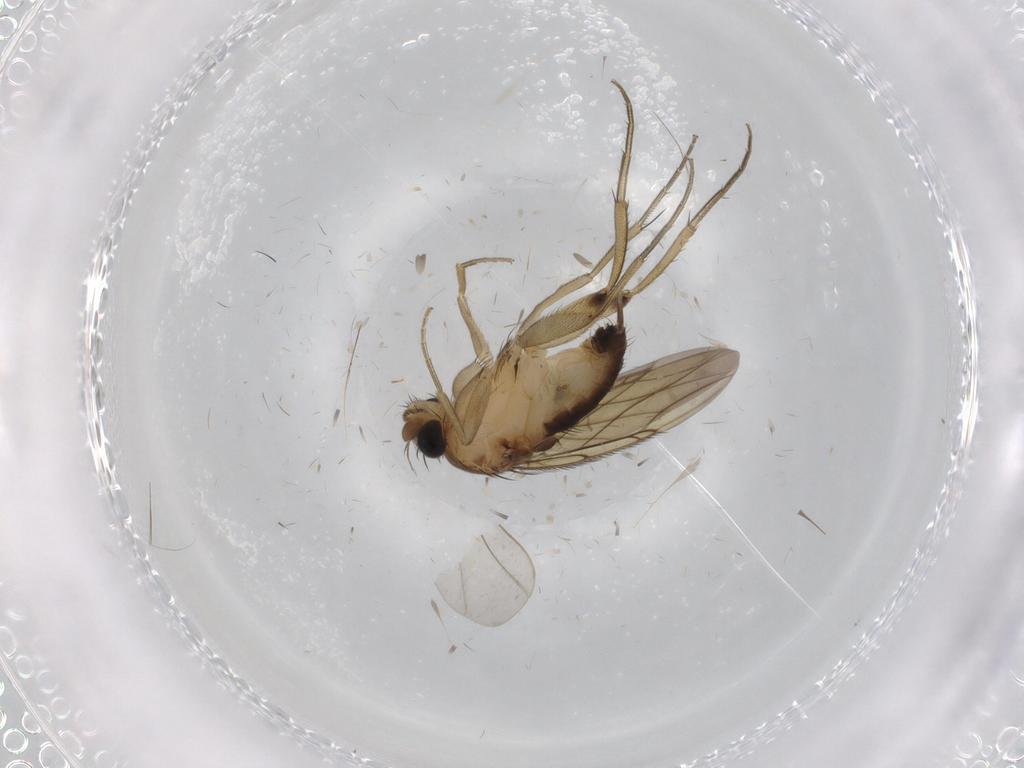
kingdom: Animalia
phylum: Arthropoda
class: Insecta
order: Diptera
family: Phoridae
